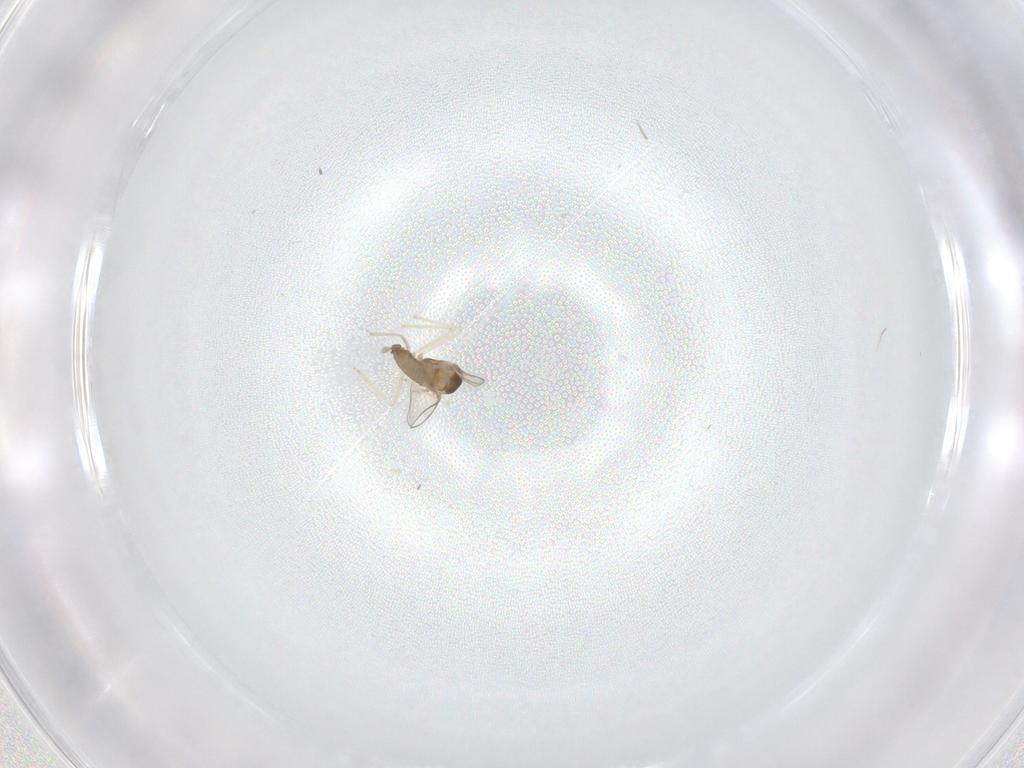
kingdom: Animalia
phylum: Arthropoda
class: Insecta
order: Diptera
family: Cecidomyiidae
